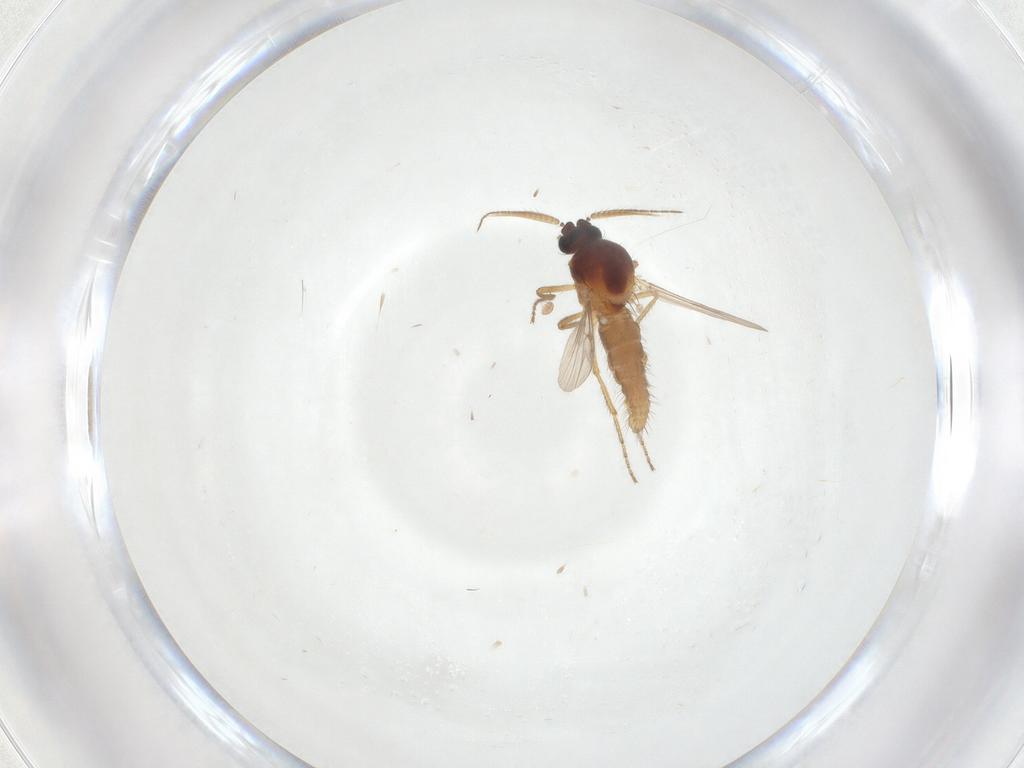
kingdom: Animalia
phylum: Arthropoda
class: Insecta
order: Diptera
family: Ceratopogonidae
